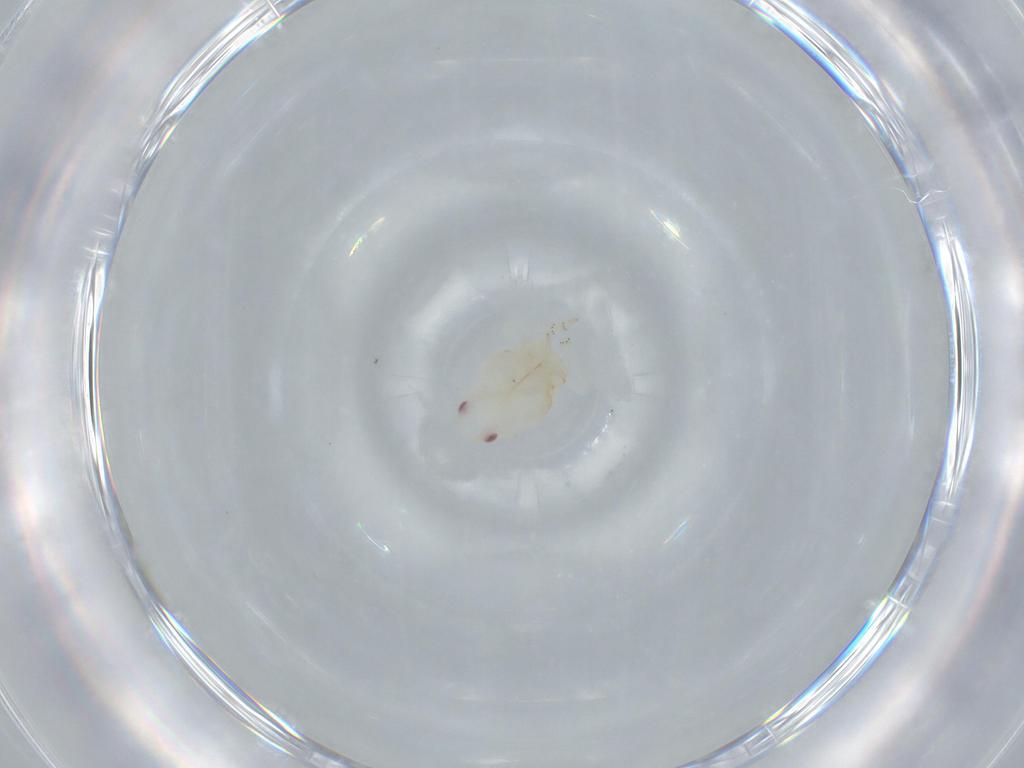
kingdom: Animalia
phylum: Arthropoda
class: Insecta
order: Hemiptera
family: Flatidae
